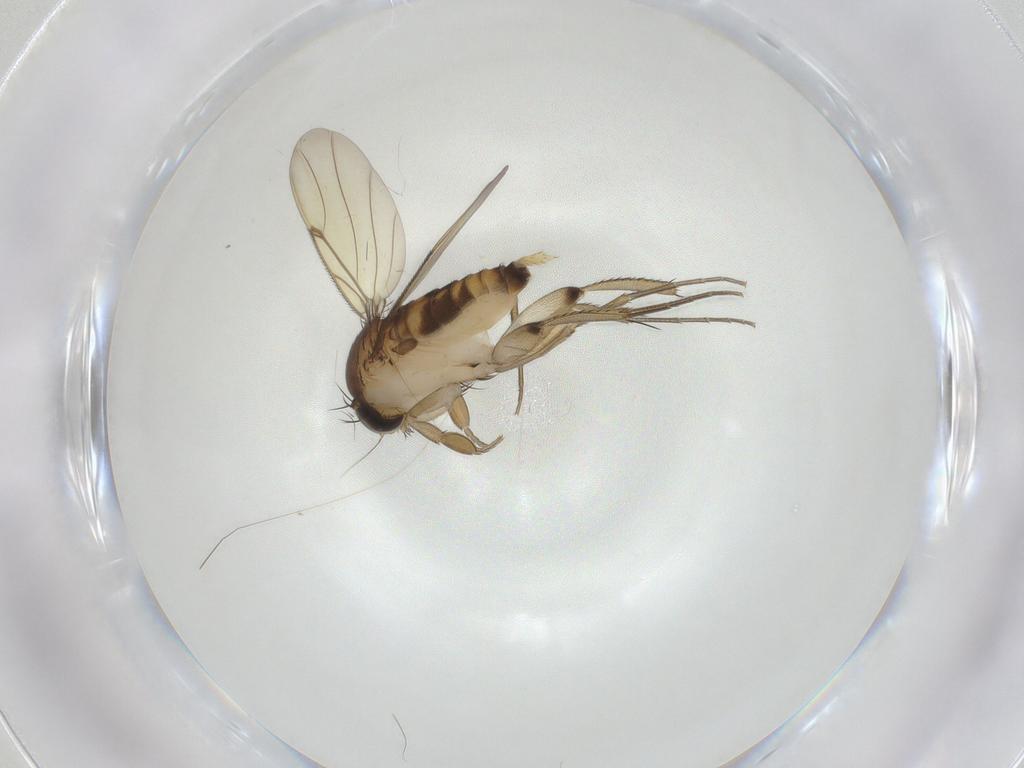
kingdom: Animalia
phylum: Arthropoda
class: Insecta
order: Diptera
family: Phoridae
